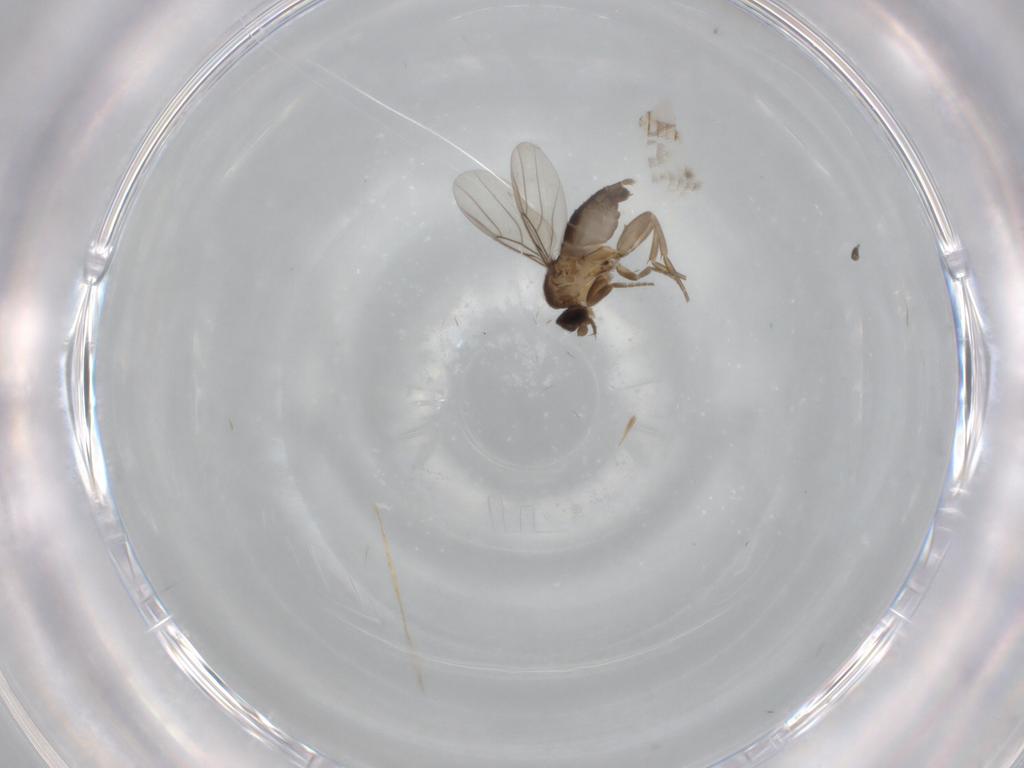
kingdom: Animalia
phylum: Arthropoda
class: Insecta
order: Diptera
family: Phoridae
